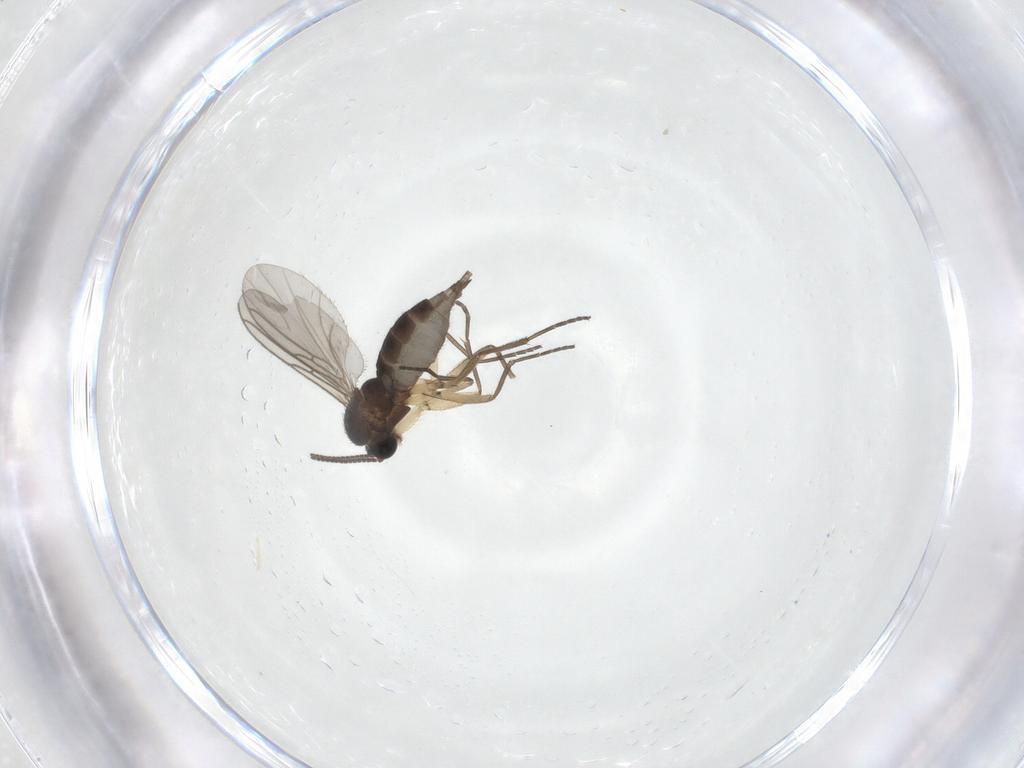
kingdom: Animalia
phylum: Arthropoda
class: Insecta
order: Diptera
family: Sciaridae
